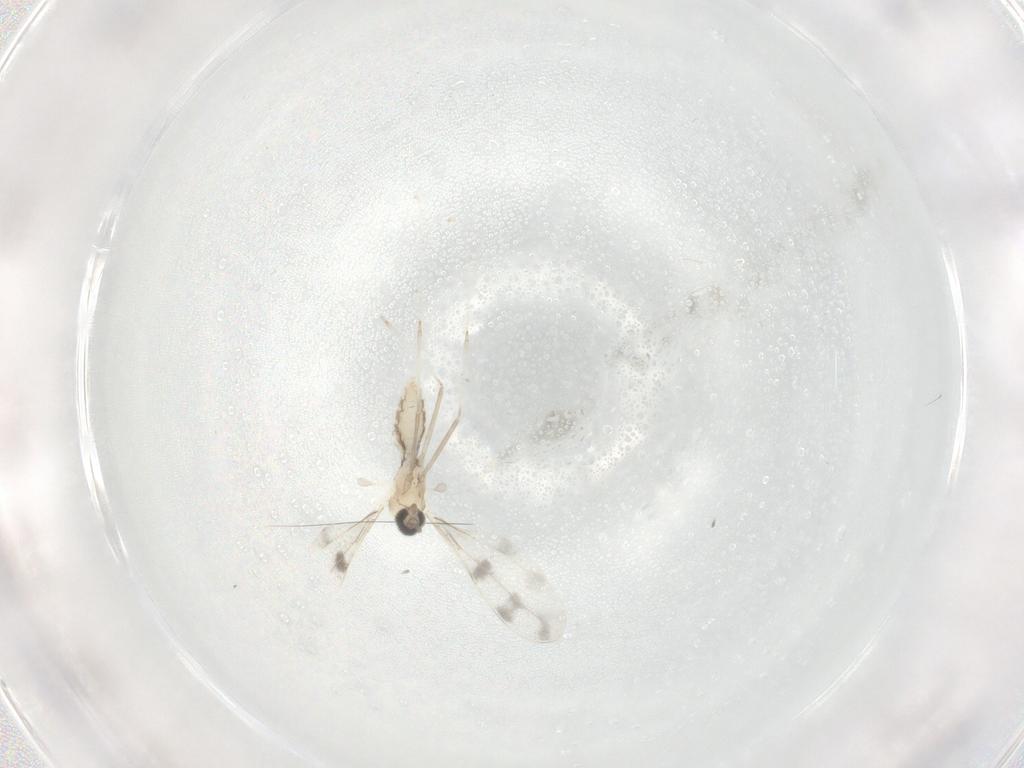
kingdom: Animalia
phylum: Arthropoda
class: Insecta
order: Diptera
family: Cecidomyiidae
